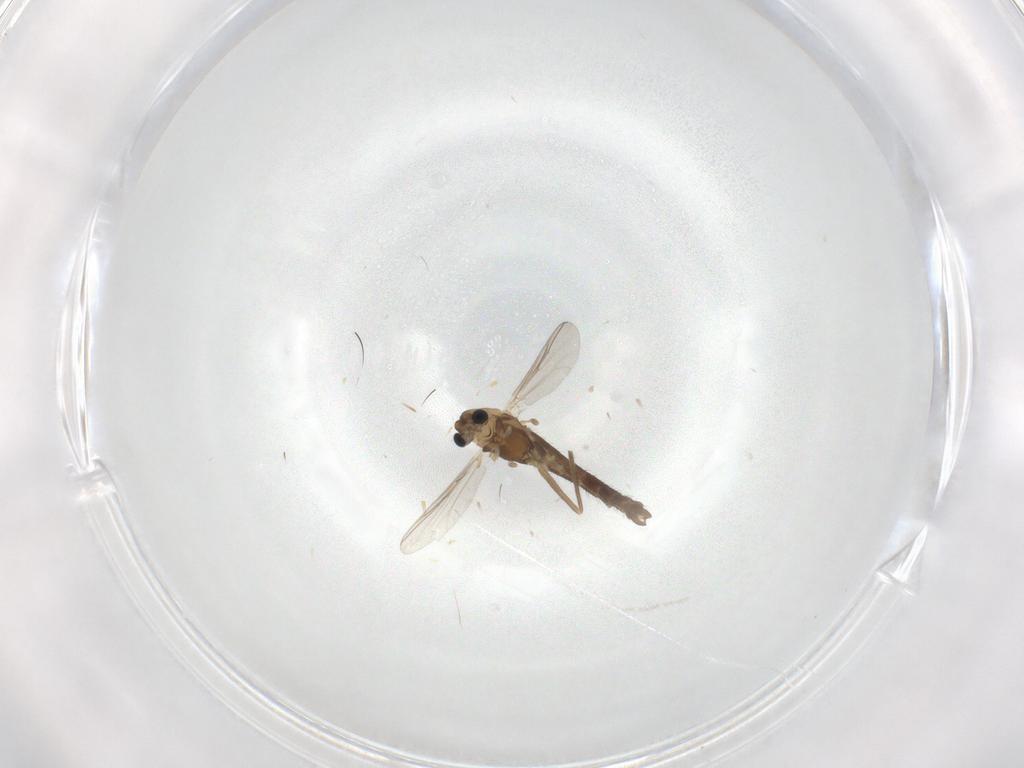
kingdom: Animalia
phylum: Arthropoda
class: Insecta
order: Diptera
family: Chironomidae
